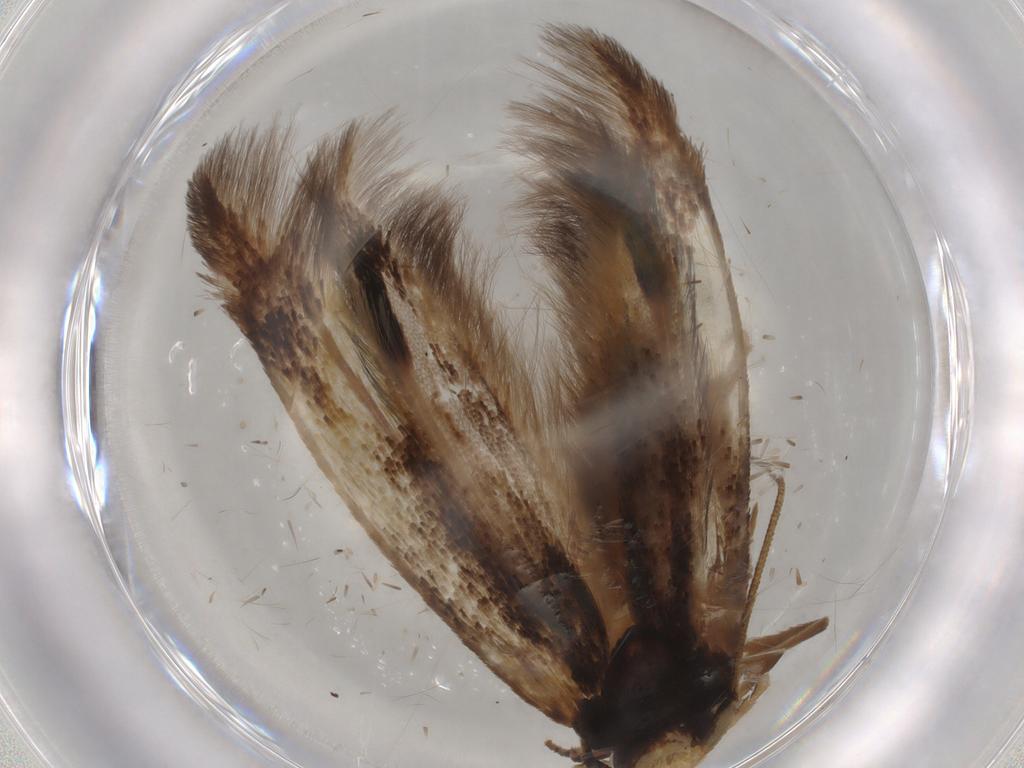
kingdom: Animalia
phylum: Arthropoda
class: Insecta
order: Lepidoptera
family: Tineidae
